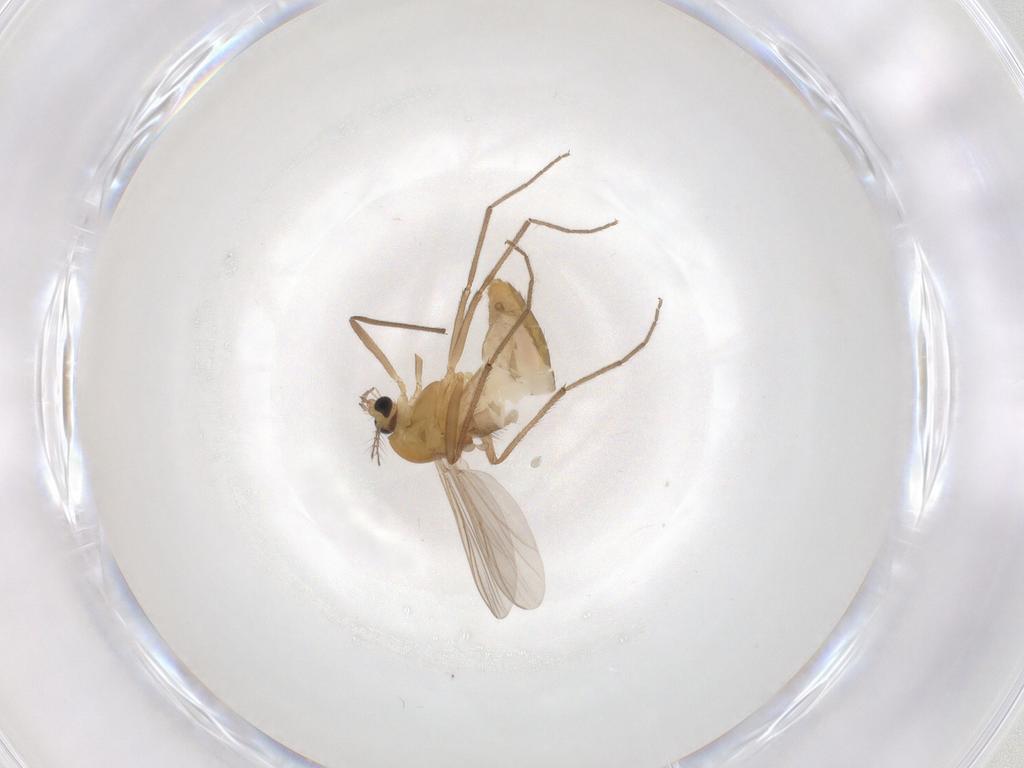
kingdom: Animalia
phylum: Arthropoda
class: Insecta
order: Diptera
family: Chironomidae
